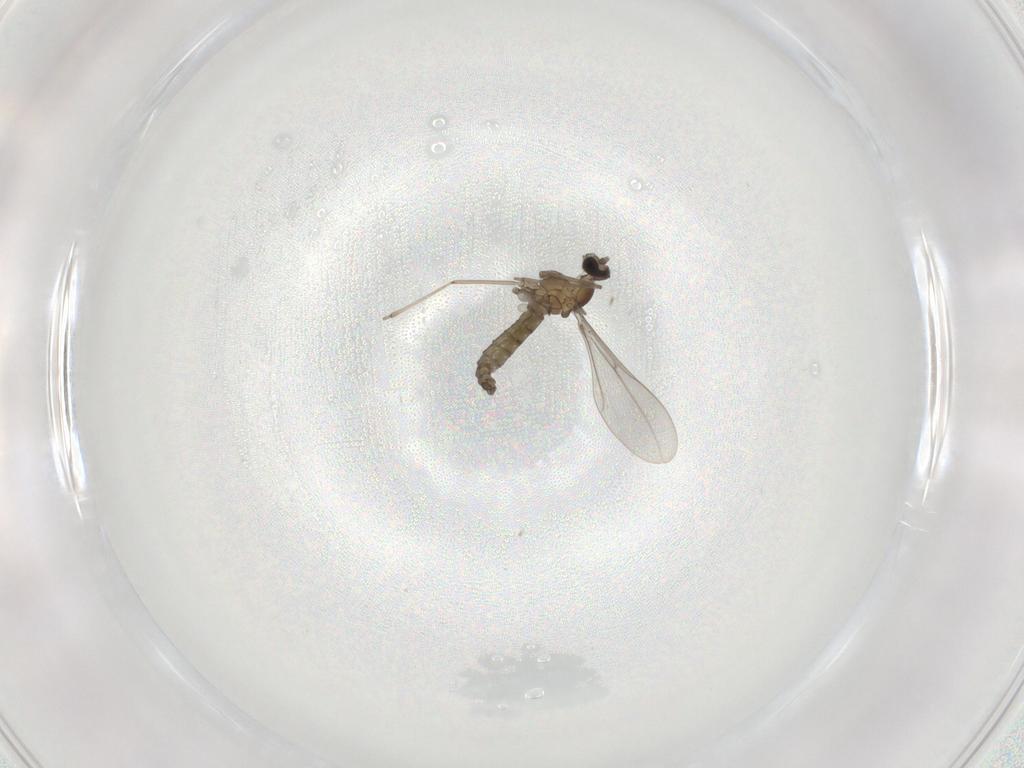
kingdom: Animalia
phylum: Arthropoda
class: Insecta
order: Diptera
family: Cecidomyiidae
